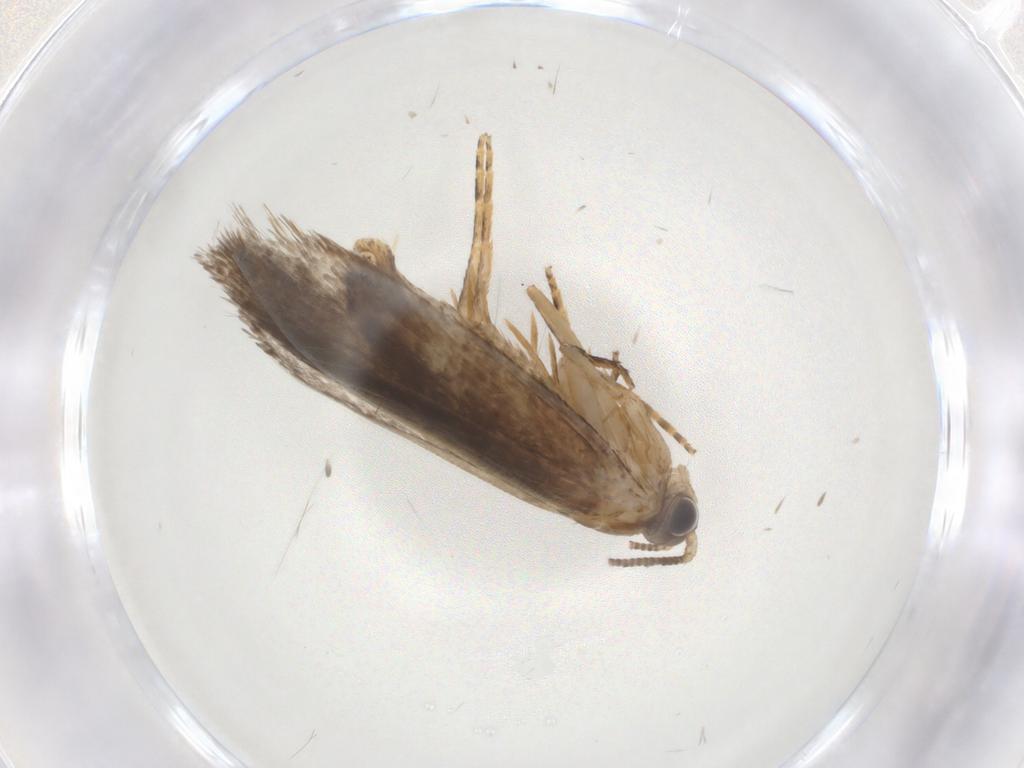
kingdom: Animalia
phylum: Arthropoda
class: Insecta
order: Lepidoptera
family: Crambidae
